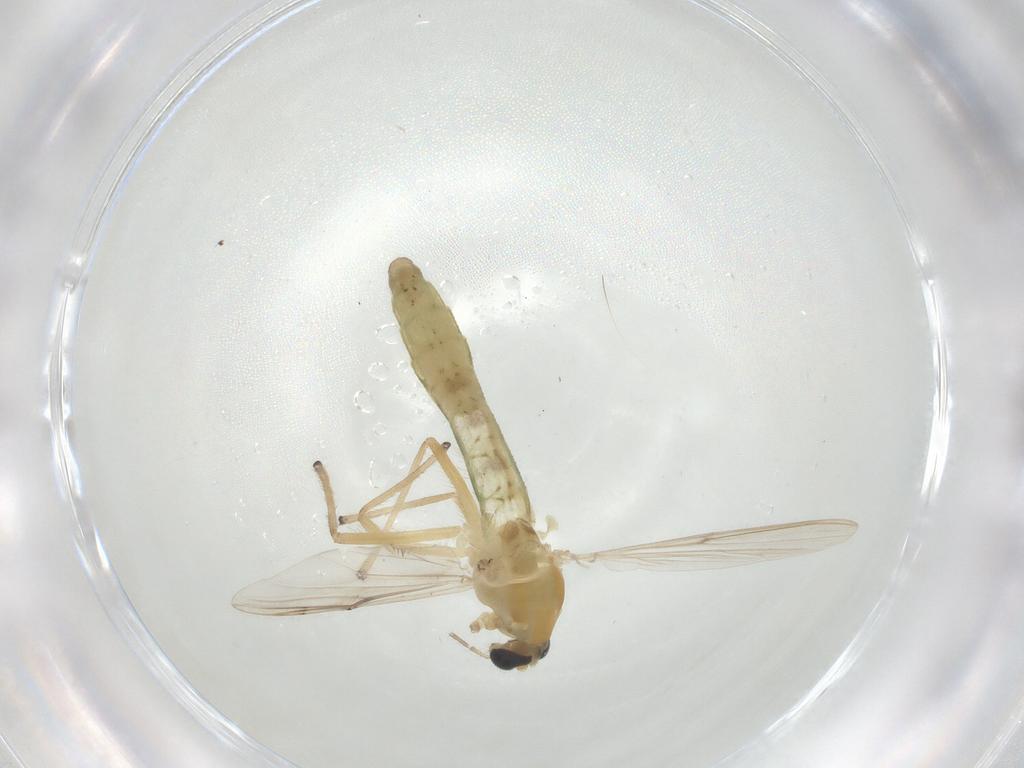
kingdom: Animalia
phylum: Arthropoda
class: Insecta
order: Diptera
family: Chironomidae
